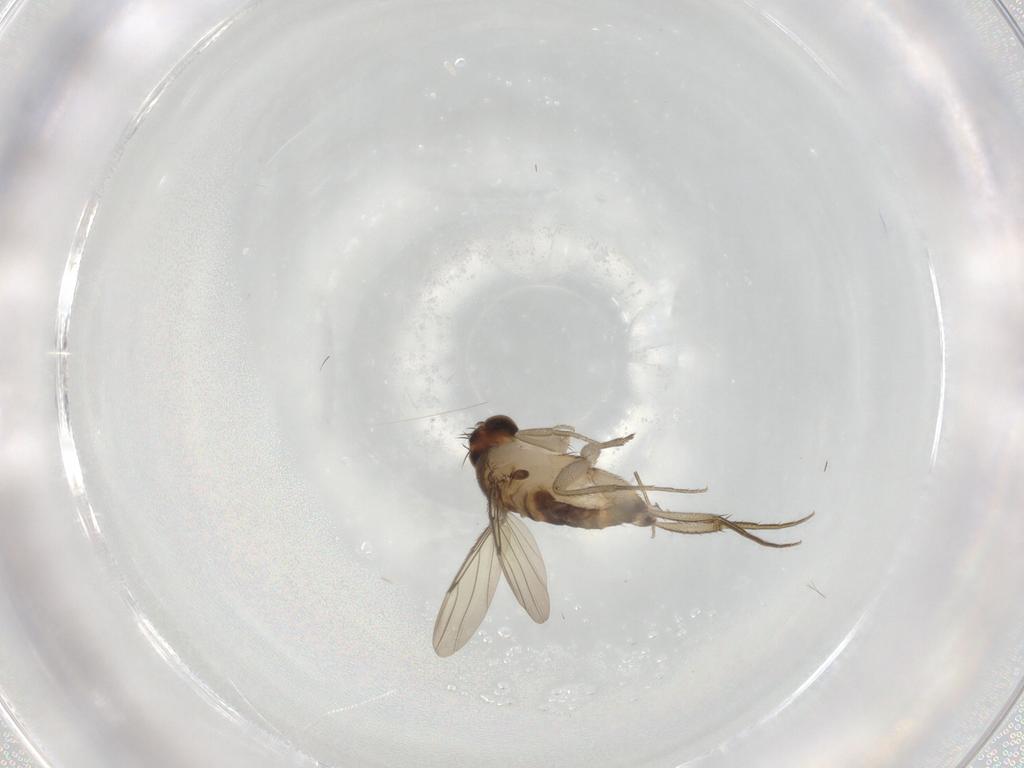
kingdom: Animalia
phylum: Arthropoda
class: Insecta
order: Diptera
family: Phoridae
